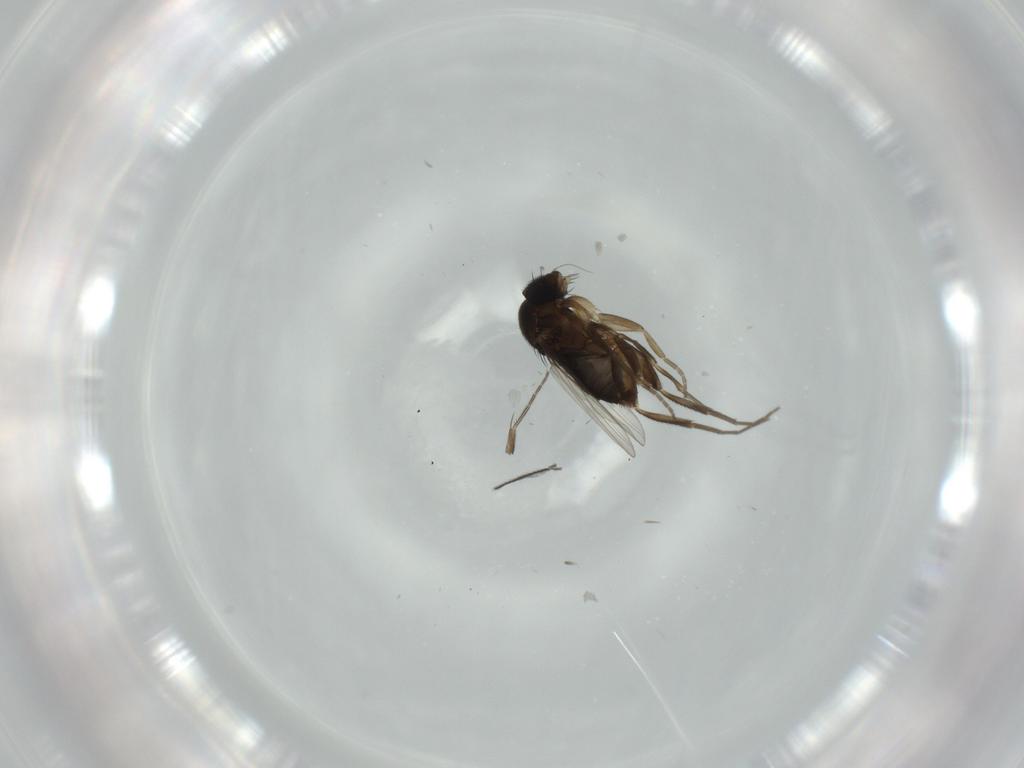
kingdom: Animalia
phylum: Arthropoda
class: Insecta
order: Diptera
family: Phoridae
